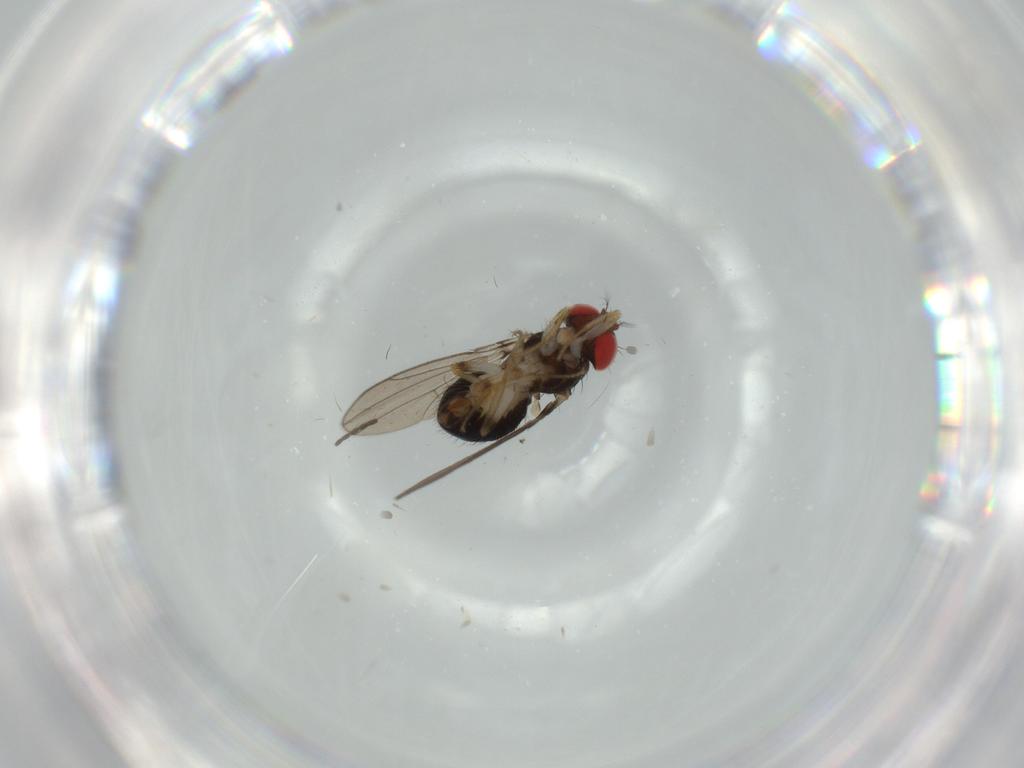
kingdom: Animalia
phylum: Arthropoda
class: Insecta
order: Diptera
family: Drosophilidae
